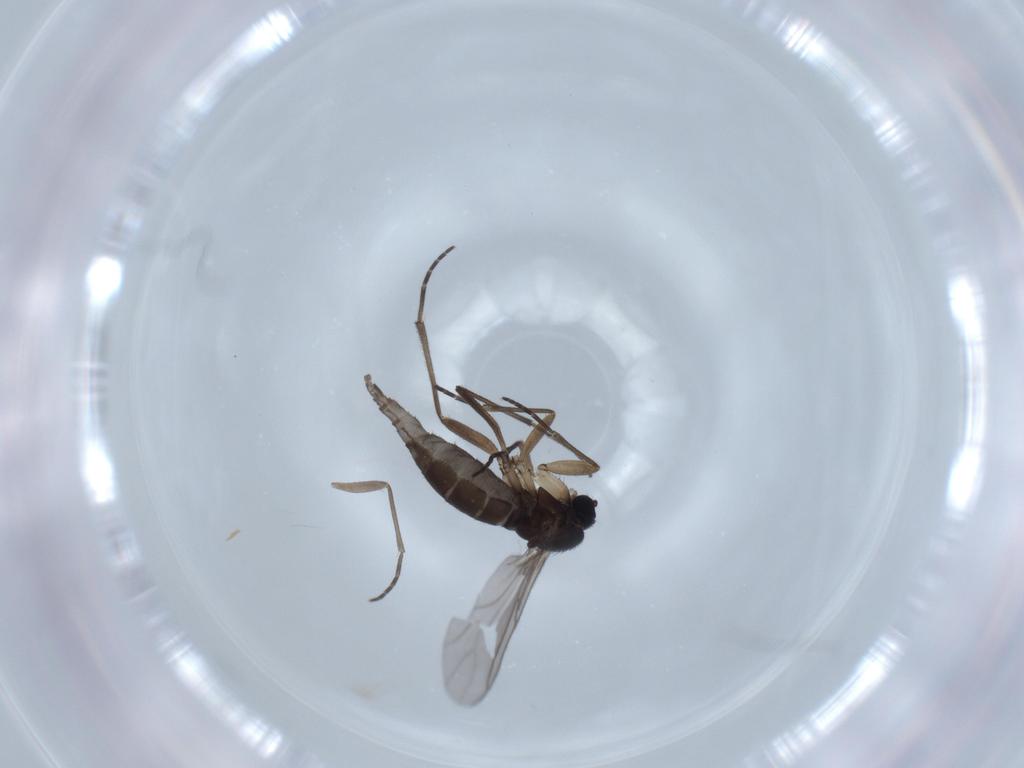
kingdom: Animalia
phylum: Arthropoda
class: Insecta
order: Diptera
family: Sciaridae
